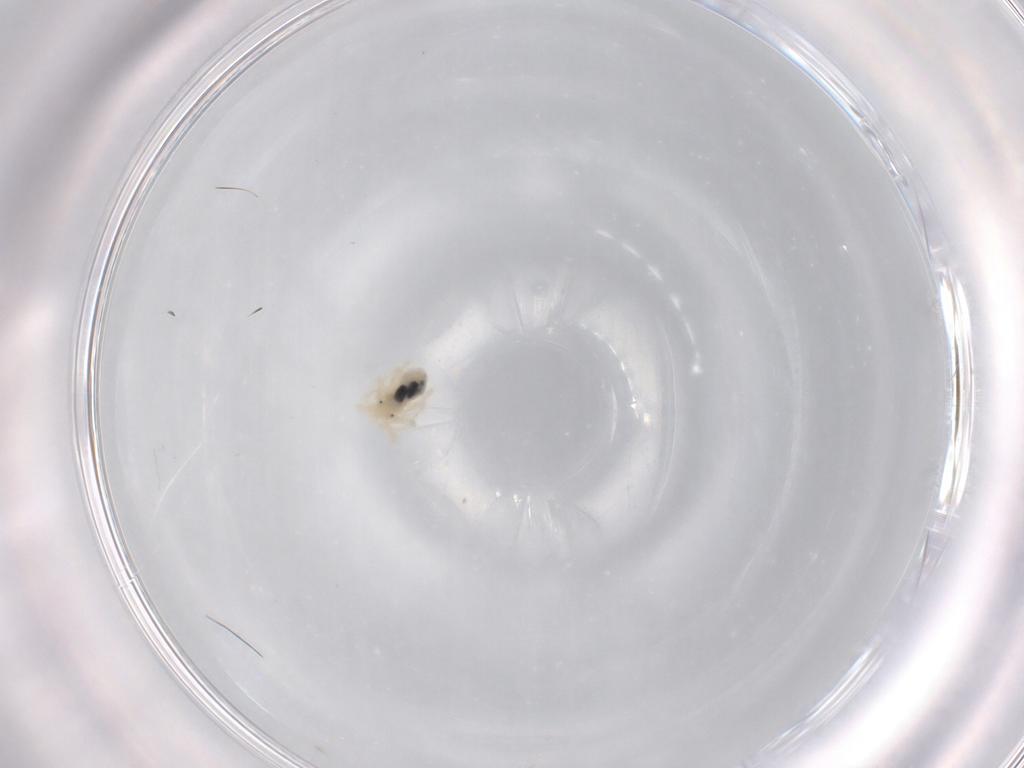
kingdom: Animalia
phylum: Arthropoda
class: Arachnida
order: Trombidiformes
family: Anystidae
